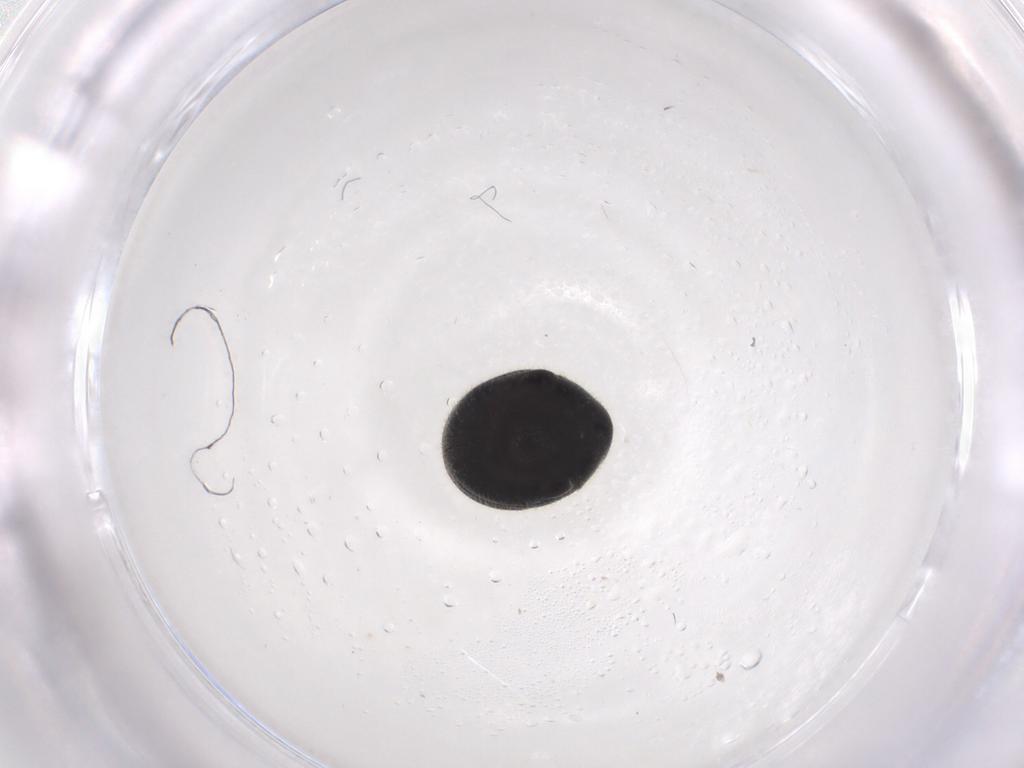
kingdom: Animalia
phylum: Arthropoda
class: Insecta
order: Coleoptera
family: Ptinidae
